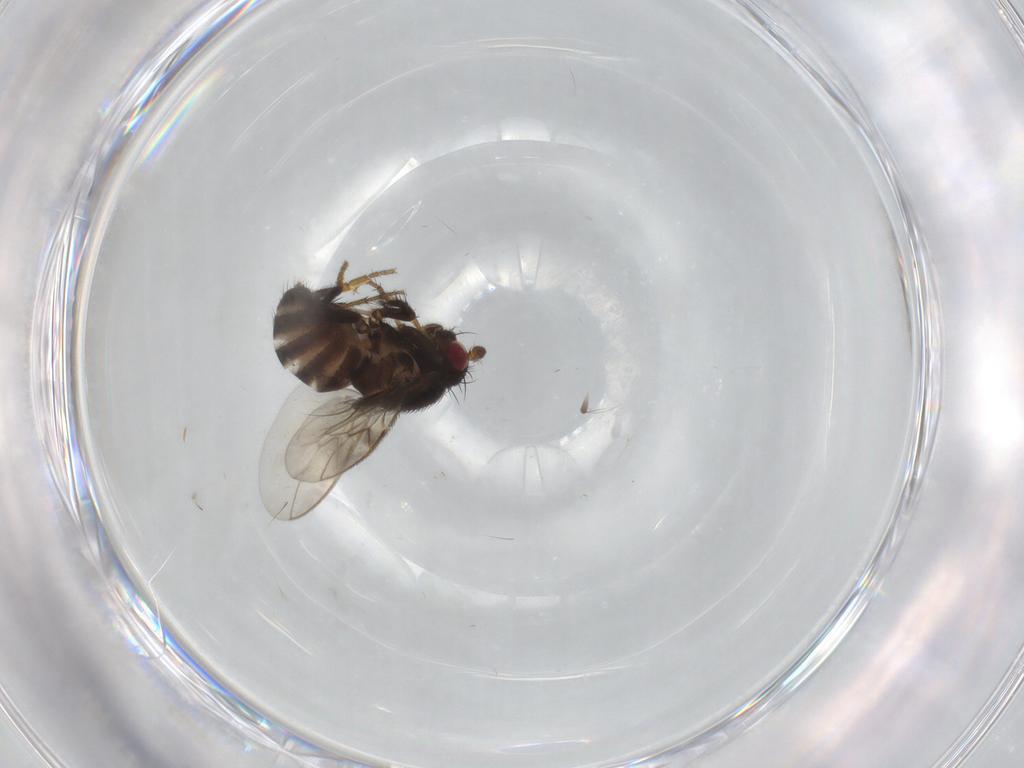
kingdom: Animalia
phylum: Arthropoda
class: Insecta
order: Diptera
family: Sphaeroceridae
